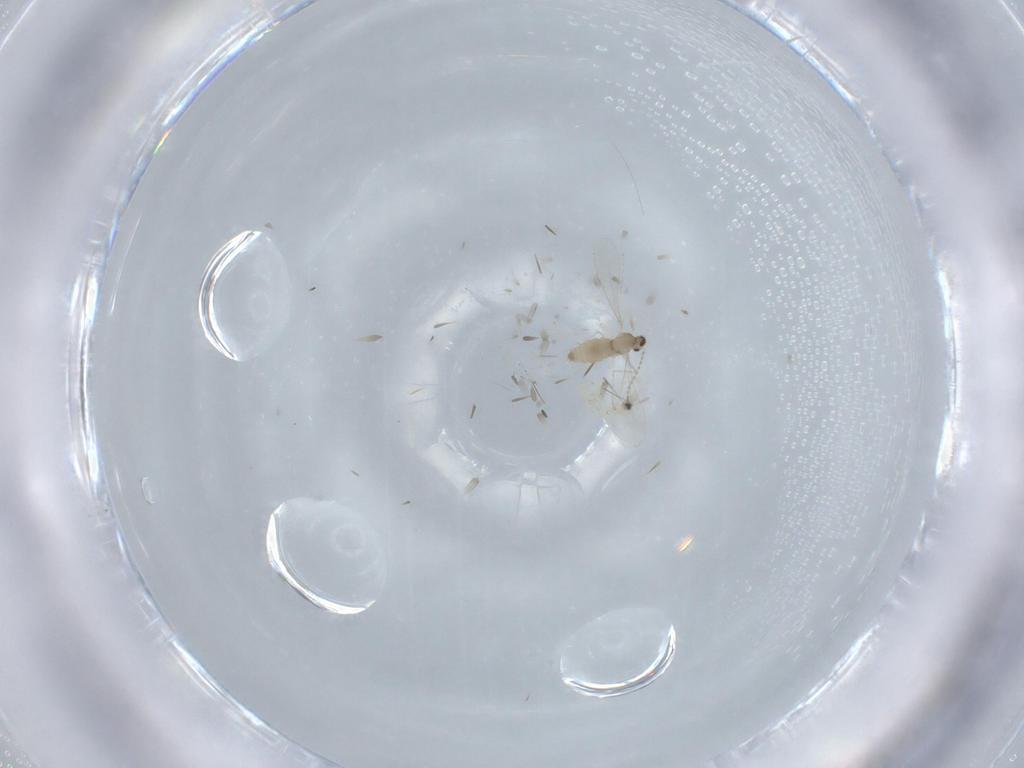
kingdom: Animalia
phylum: Arthropoda
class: Insecta
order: Diptera
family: Cecidomyiidae
